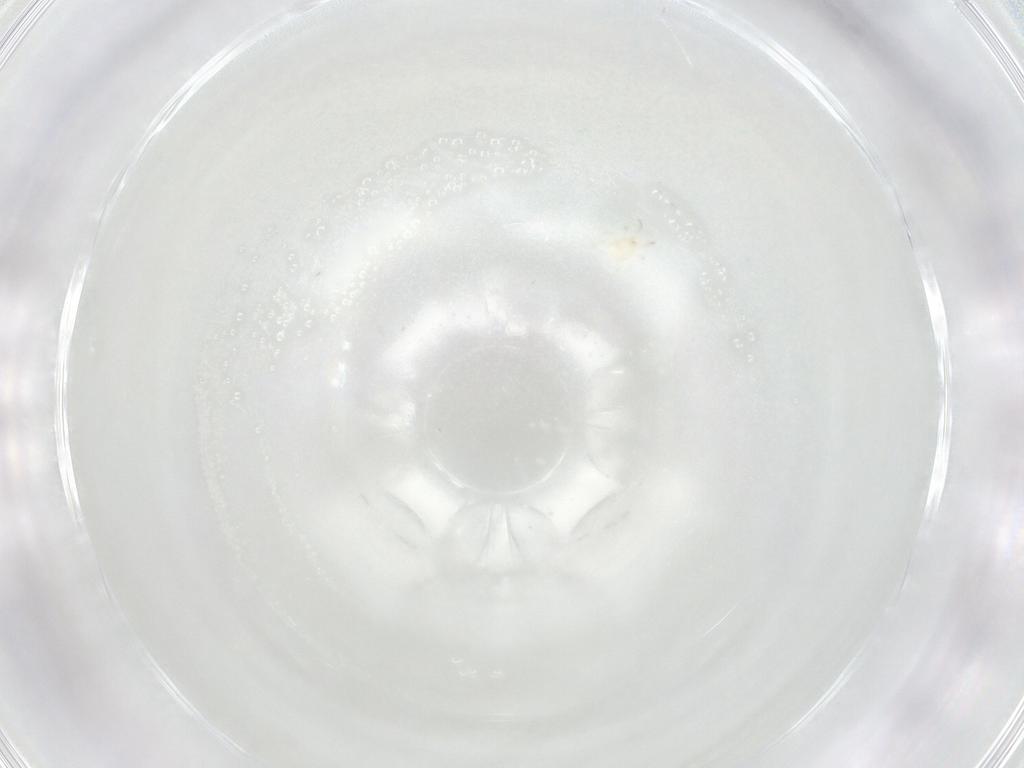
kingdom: Animalia
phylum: Arthropoda
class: Arachnida
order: Mesostigmata
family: Phytoseiidae
